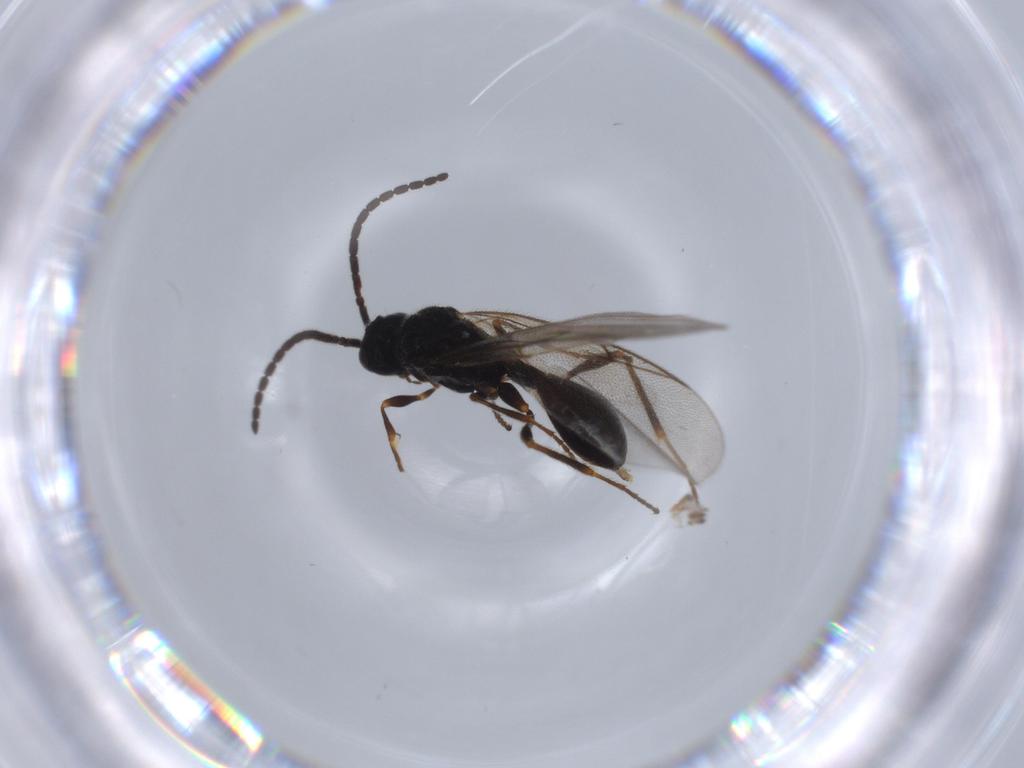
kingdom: Animalia
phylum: Arthropoda
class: Insecta
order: Hymenoptera
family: Ichneumonidae
